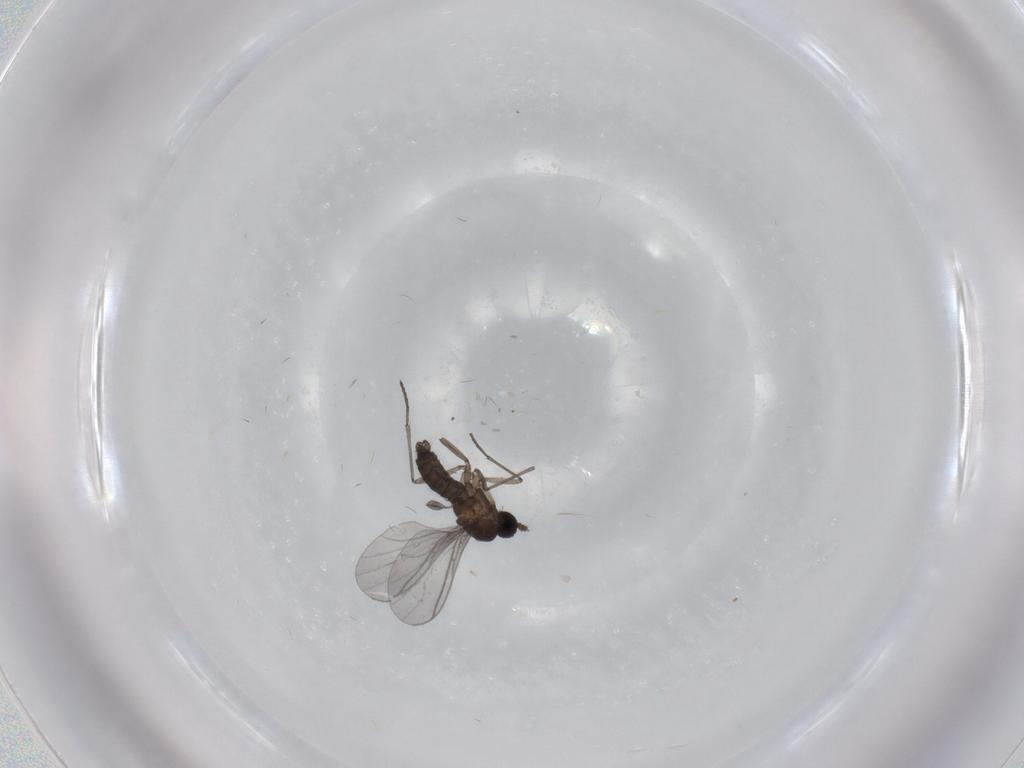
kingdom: Animalia
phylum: Arthropoda
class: Insecta
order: Diptera
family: Sciaridae
